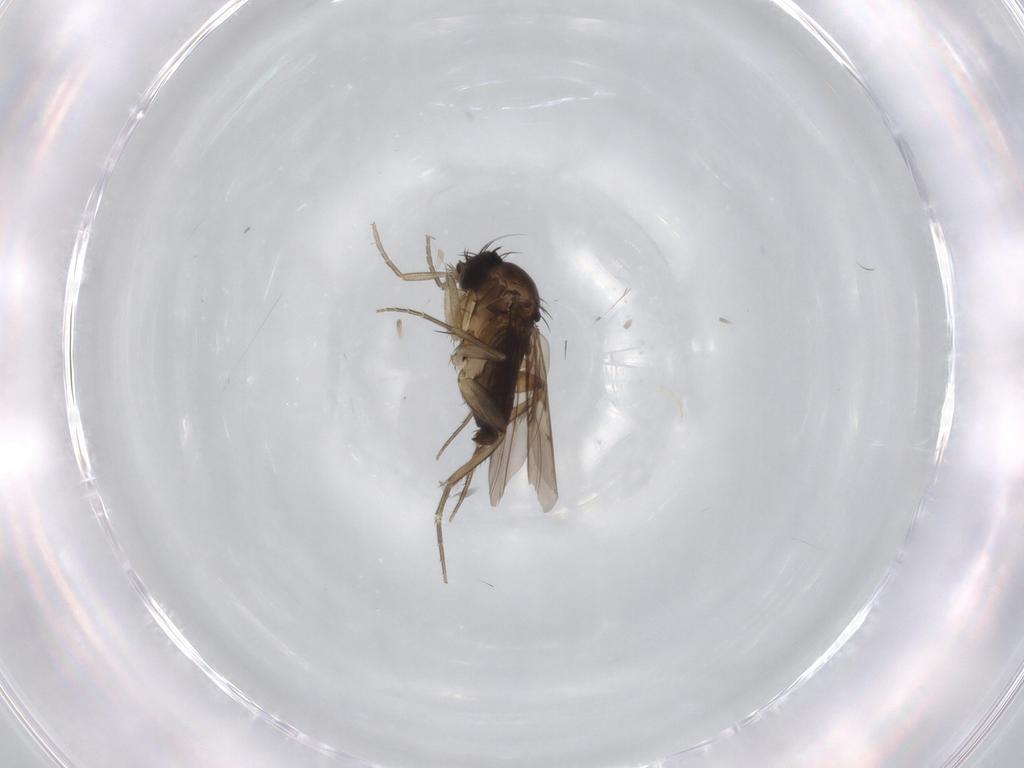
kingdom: Animalia
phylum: Arthropoda
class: Insecta
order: Diptera
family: Phoridae
